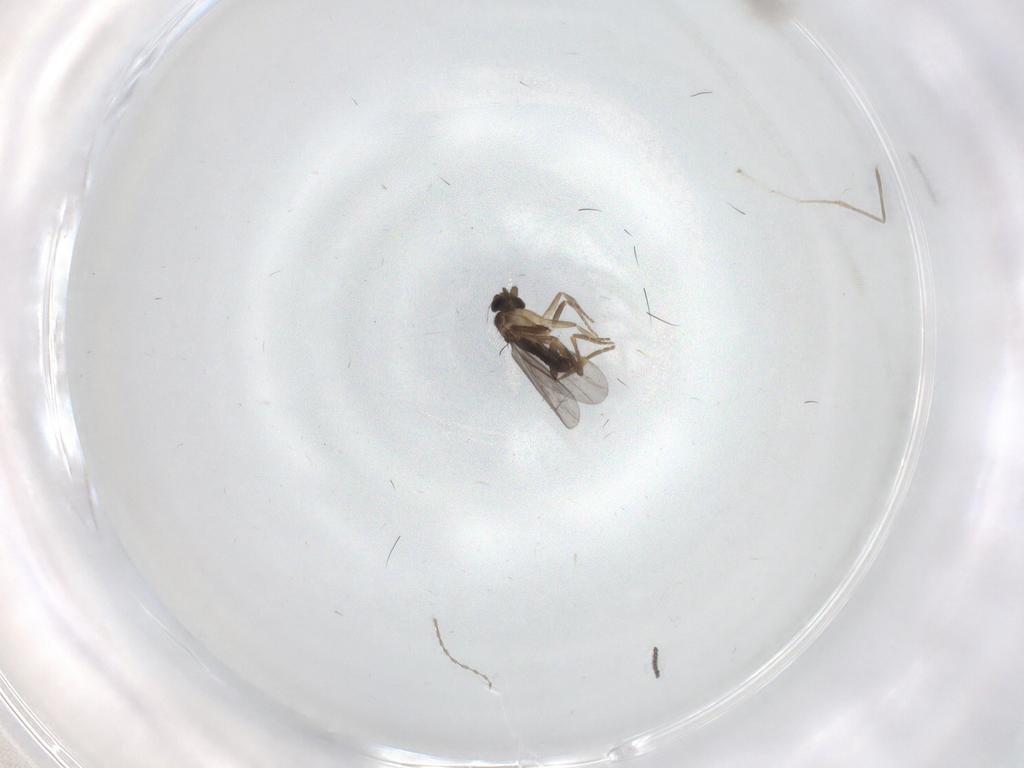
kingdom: Animalia
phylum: Arthropoda
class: Insecta
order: Diptera
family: Cecidomyiidae
